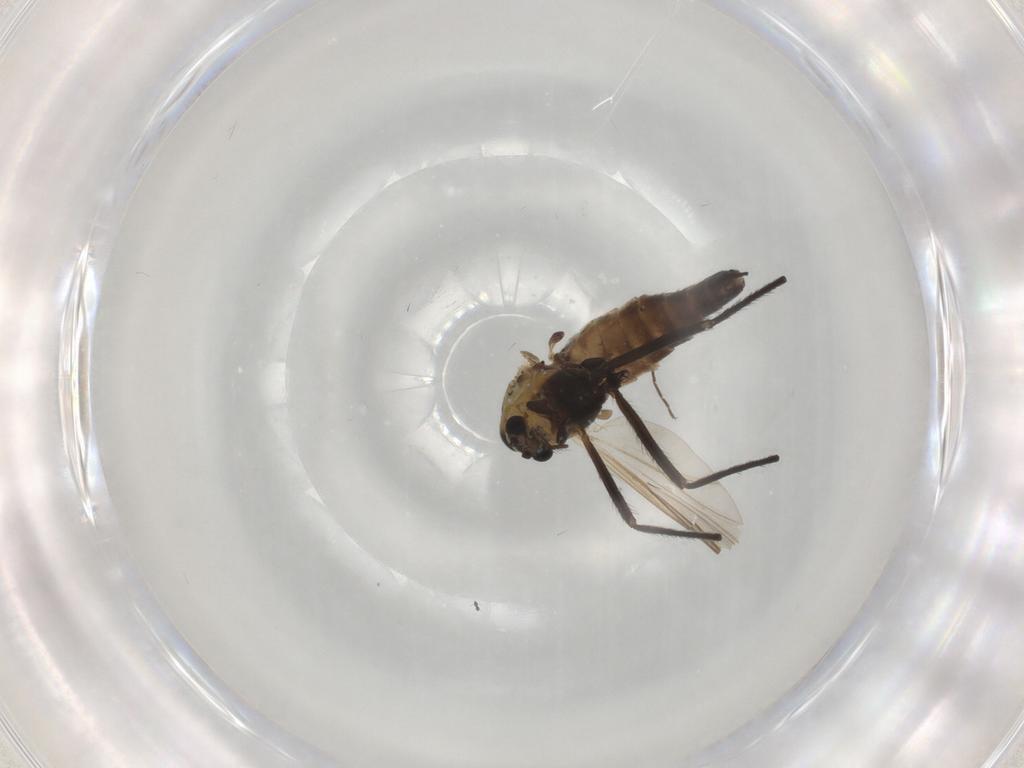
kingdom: Animalia
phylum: Arthropoda
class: Insecta
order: Diptera
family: Chironomidae
